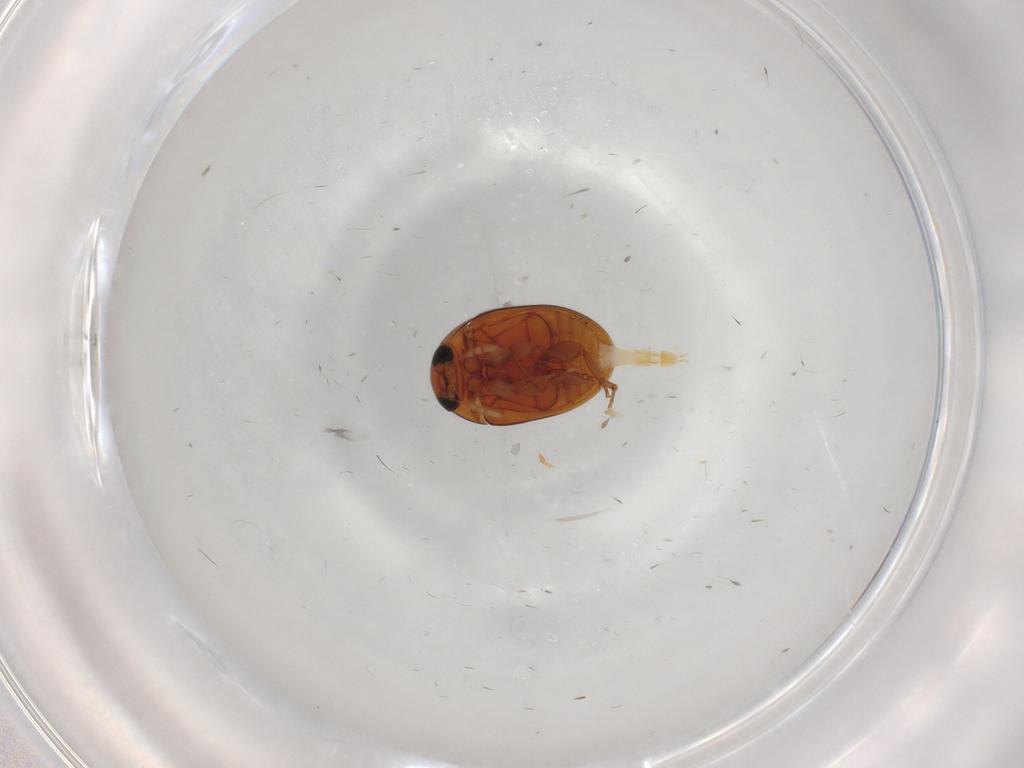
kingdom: Animalia
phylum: Arthropoda
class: Insecta
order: Coleoptera
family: Phalacridae
